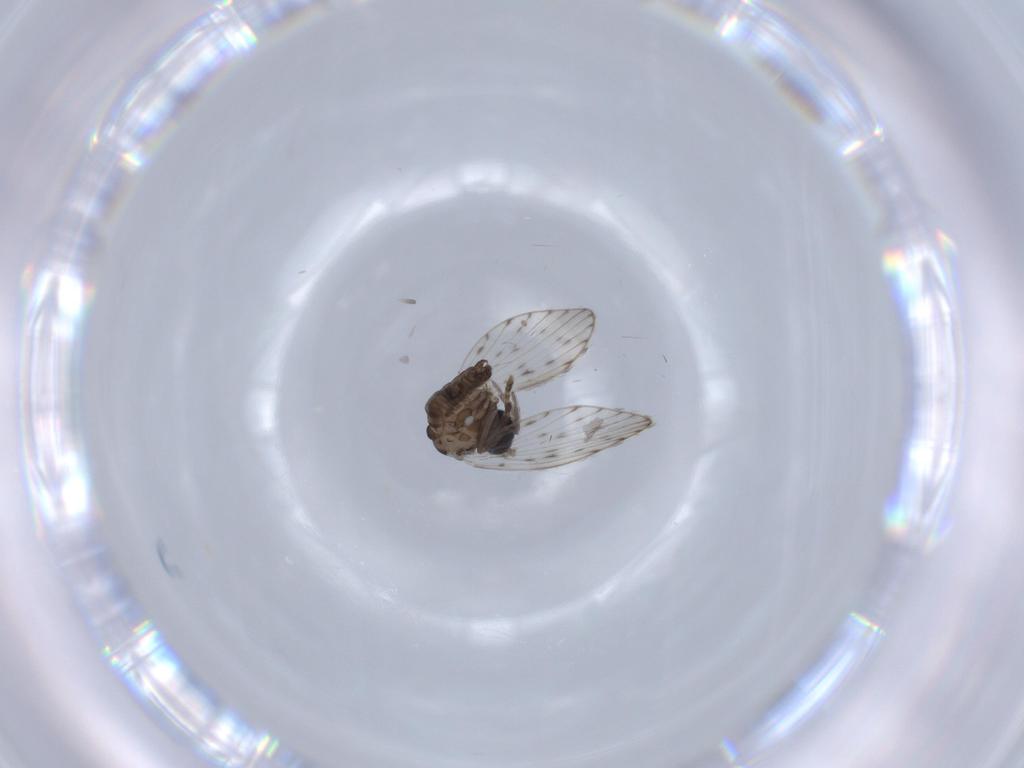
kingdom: Animalia
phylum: Arthropoda
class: Insecta
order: Diptera
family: Psychodidae
